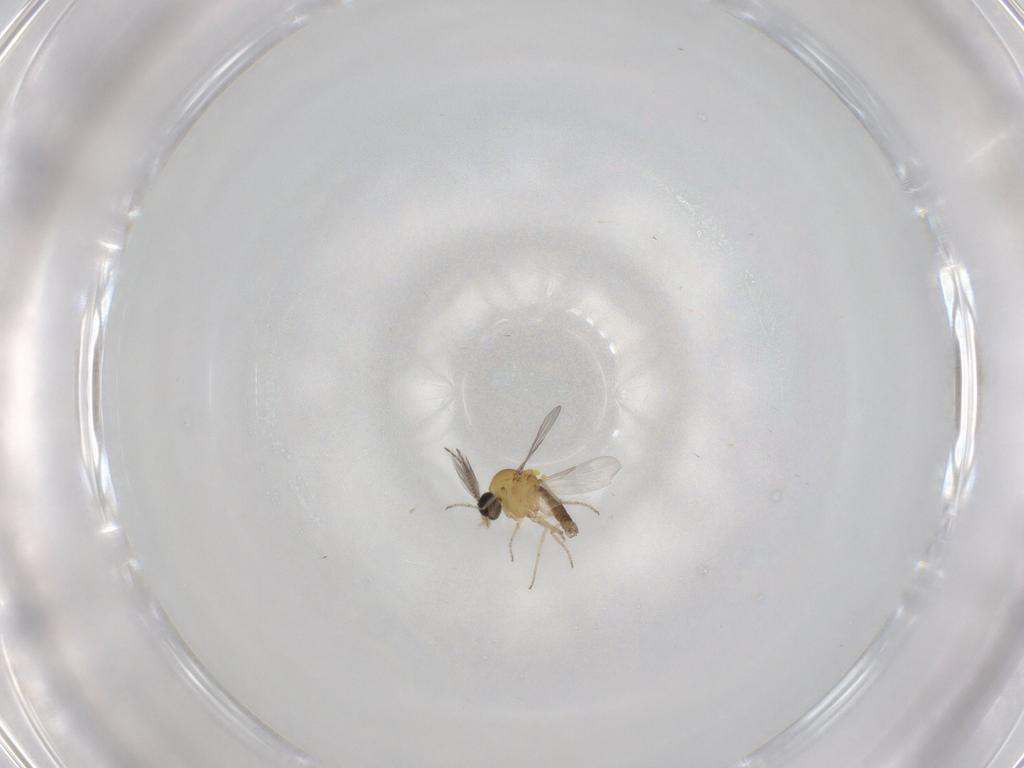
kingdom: Animalia
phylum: Arthropoda
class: Insecta
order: Diptera
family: Ceratopogonidae
